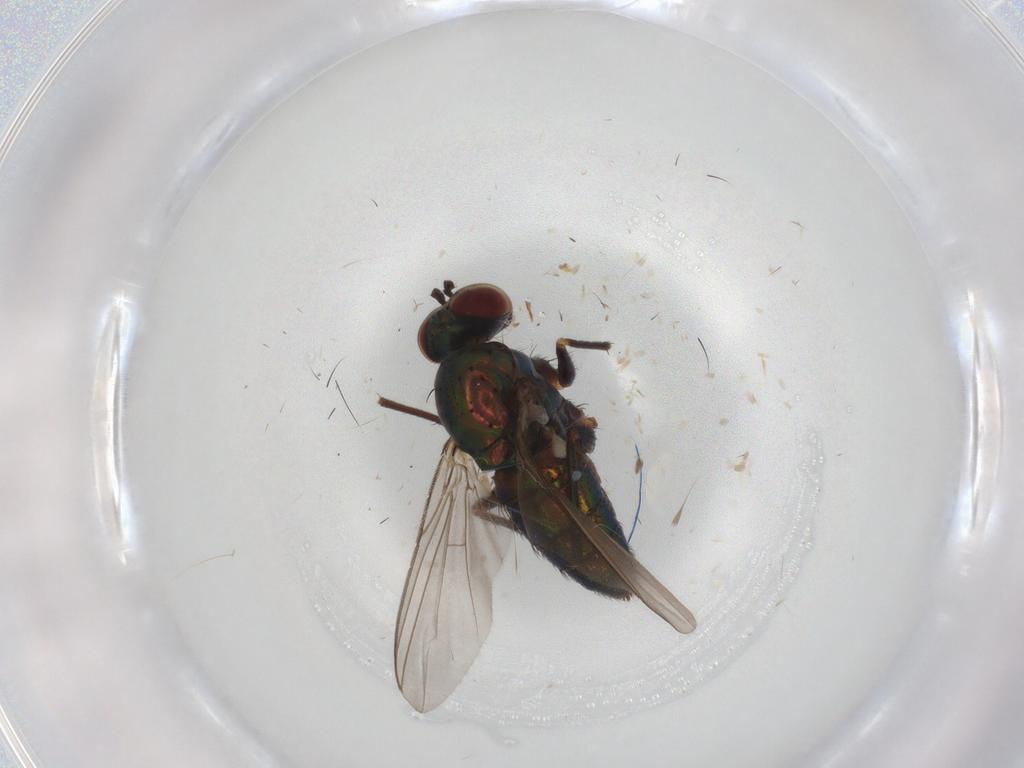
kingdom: Animalia
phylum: Arthropoda
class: Insecta
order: Diptera
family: Dolichopodidae
